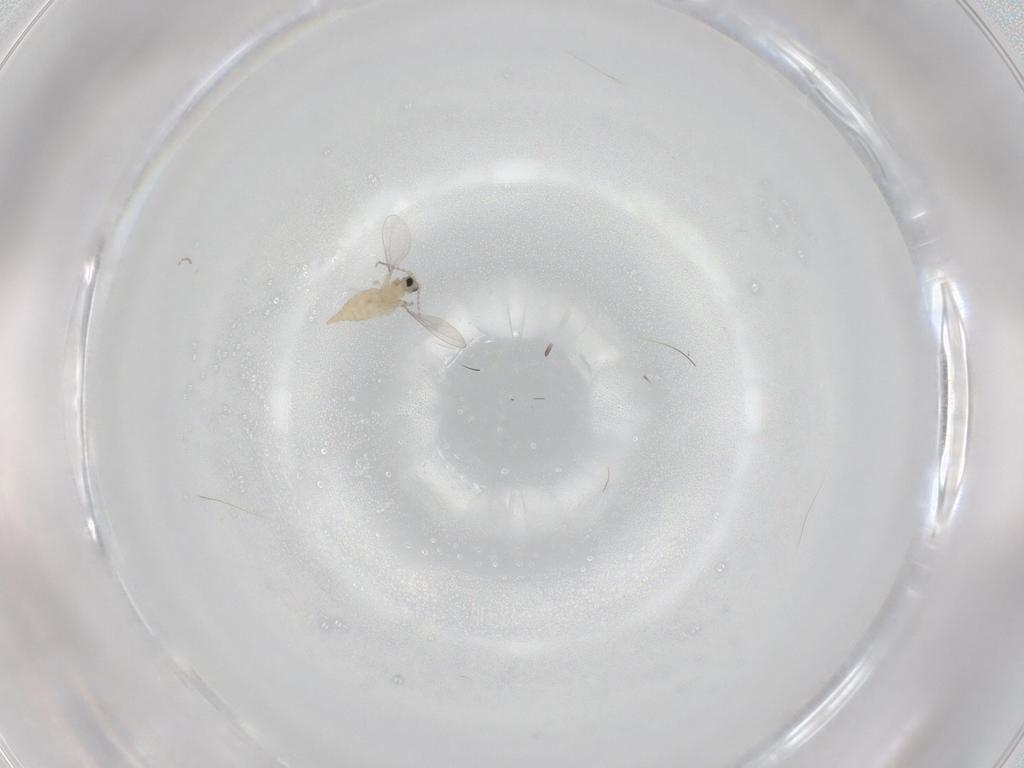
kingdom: Animalia
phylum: Arthropoda
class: Insecta
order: Diptera
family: Cecidomyiidae
